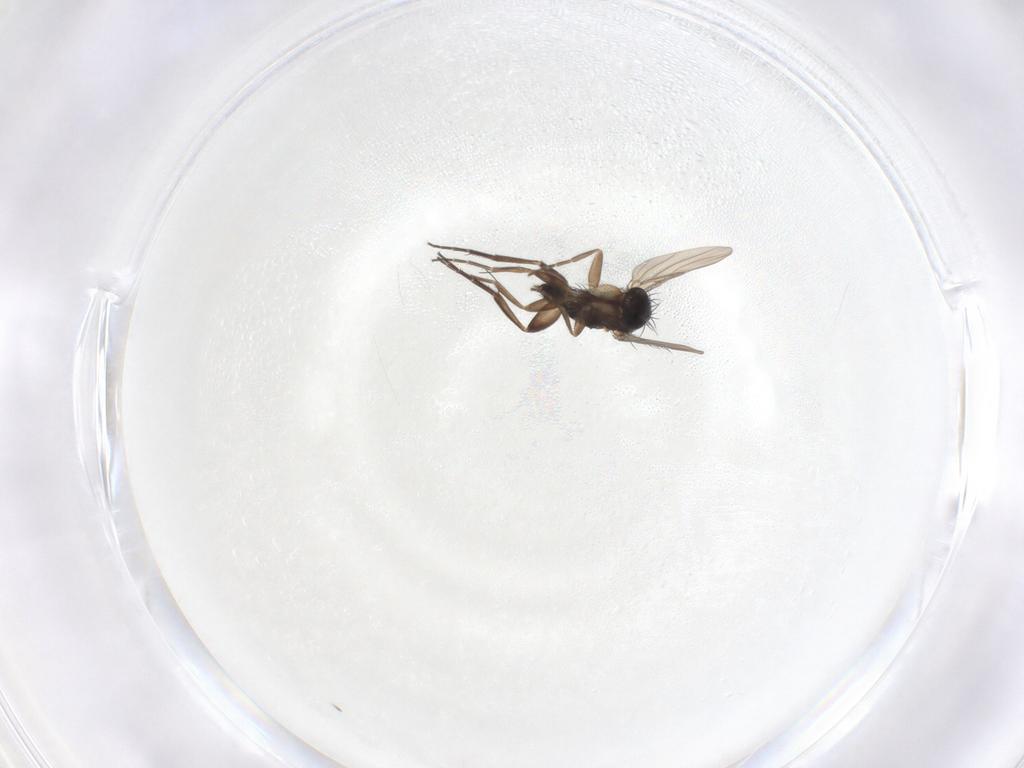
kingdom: Animalia
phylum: Arthropoda
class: Insecta
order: Diptera
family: Phoridae
